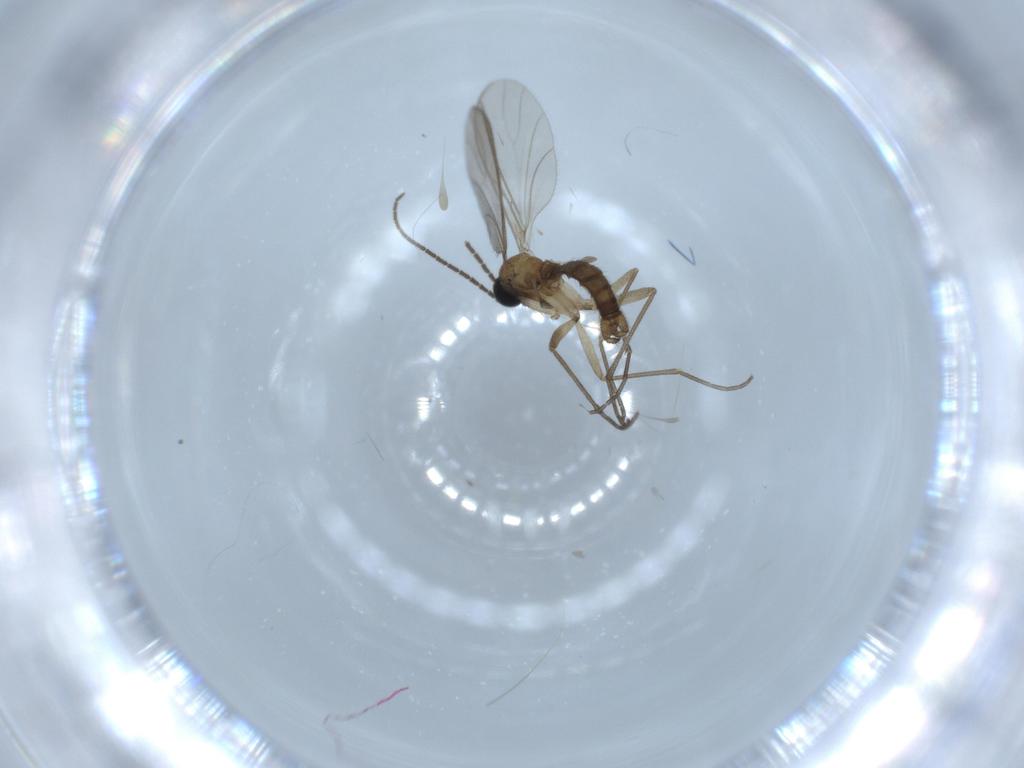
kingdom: Animalia
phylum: Arthropoda
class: Insecta
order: Diptera
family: Sciaridae
